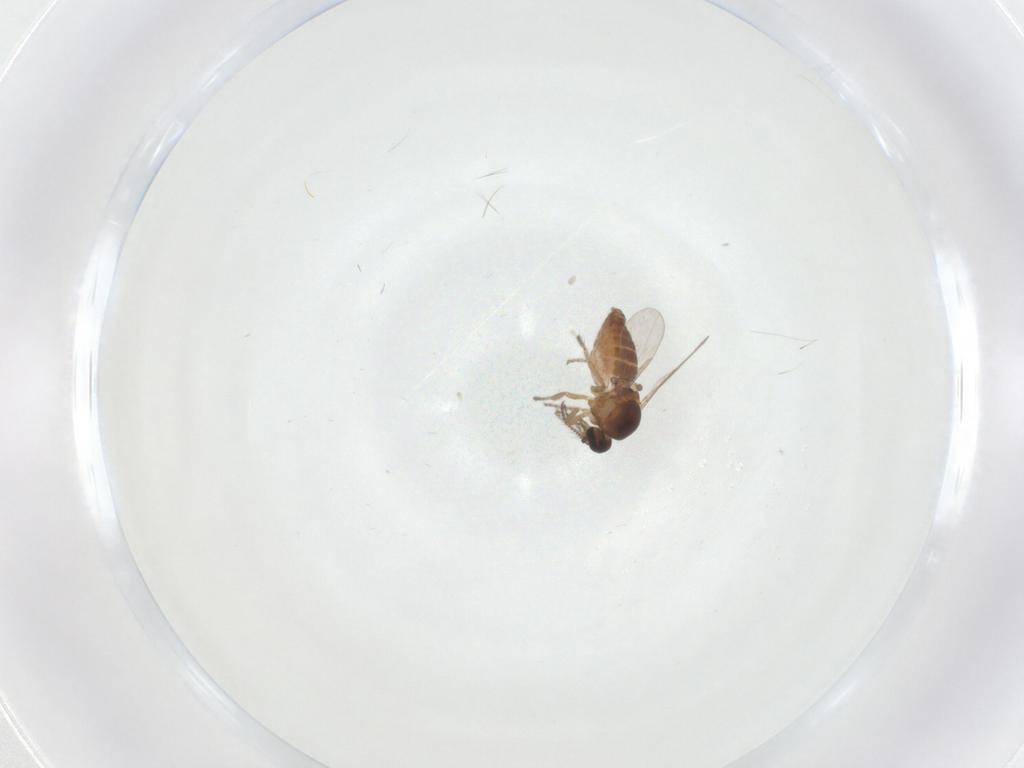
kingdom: Animalia
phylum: Arthropoda
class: Insecta
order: Diptera
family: Ceratopogonidae
